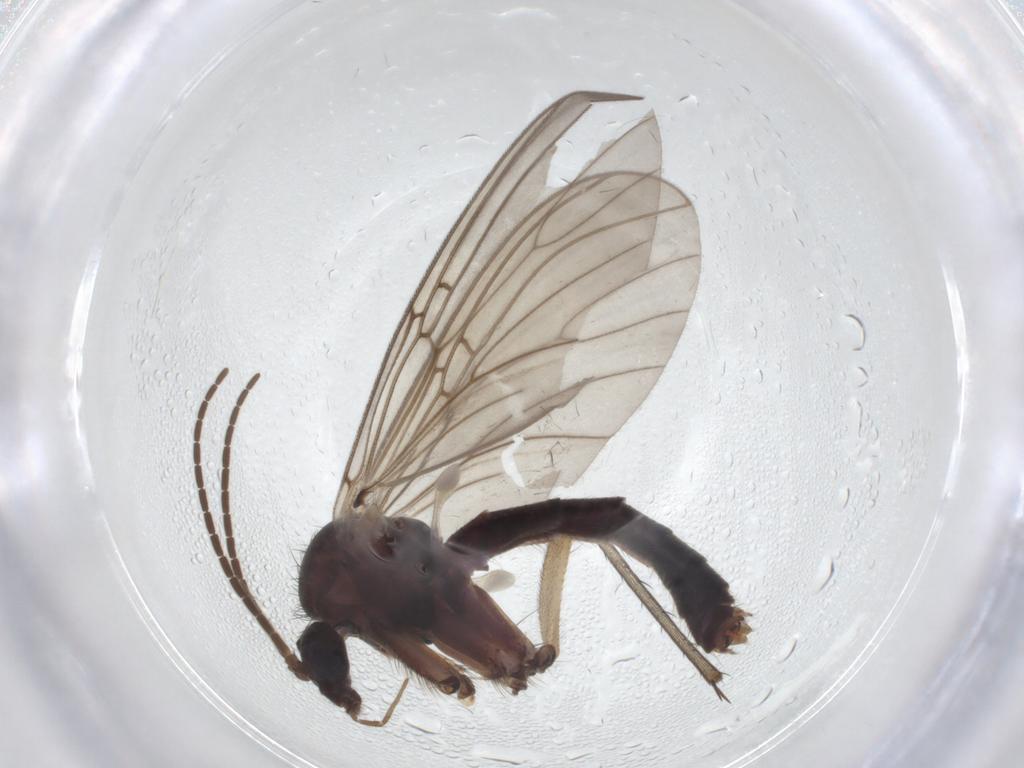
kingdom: Animalia
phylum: Arthropoda
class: Insecta
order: Diptera
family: Mycetophilidae
